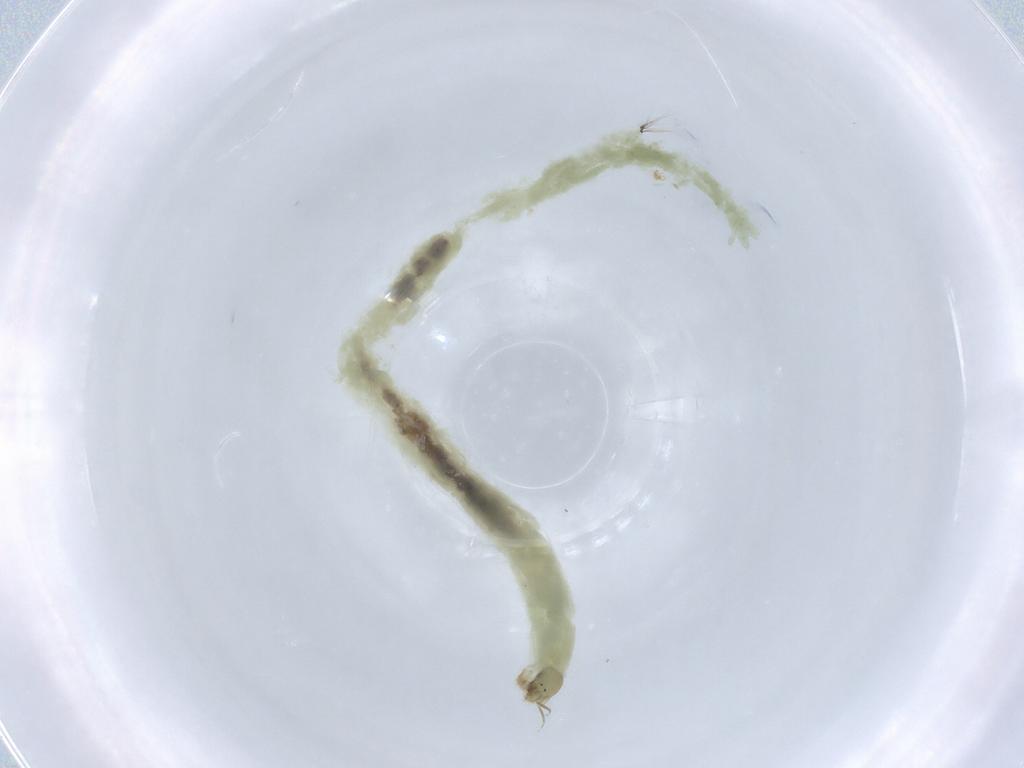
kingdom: Animalia
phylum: Arthropoda
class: Insecta
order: Diptera
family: Chironomidae
